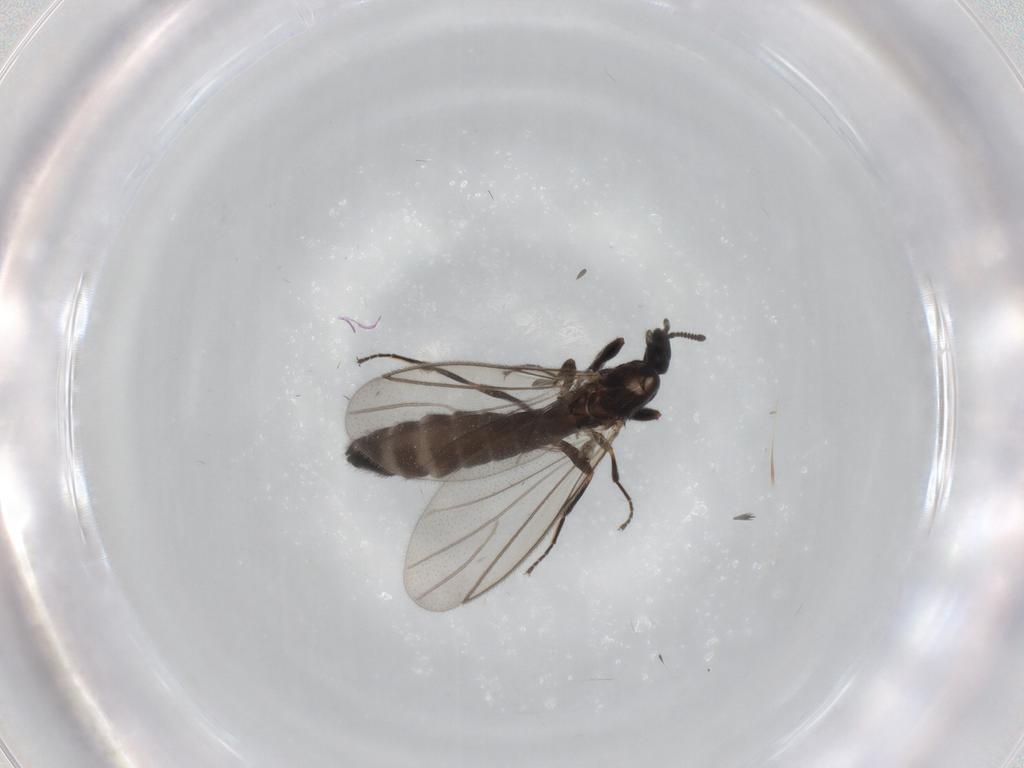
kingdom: Animalia
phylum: Arthropoda
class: Insecta
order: Diptera
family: Scatopsidae
